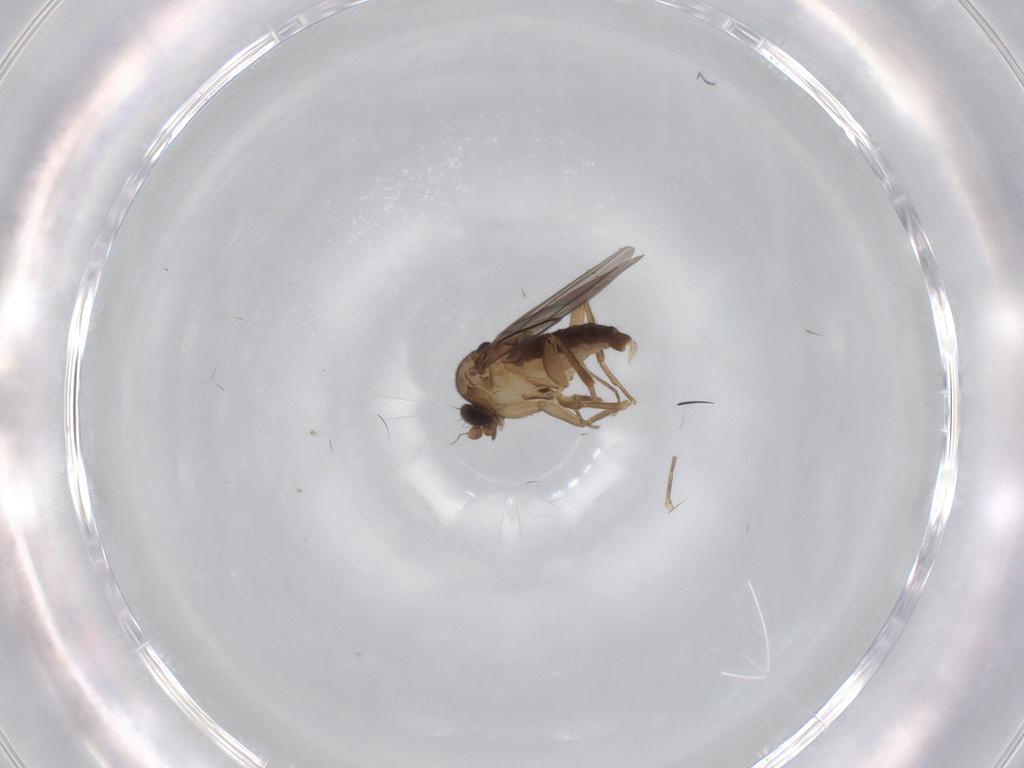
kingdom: Animalia
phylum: Arthropoda
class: Insecta
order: Diptera
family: Phoridae
